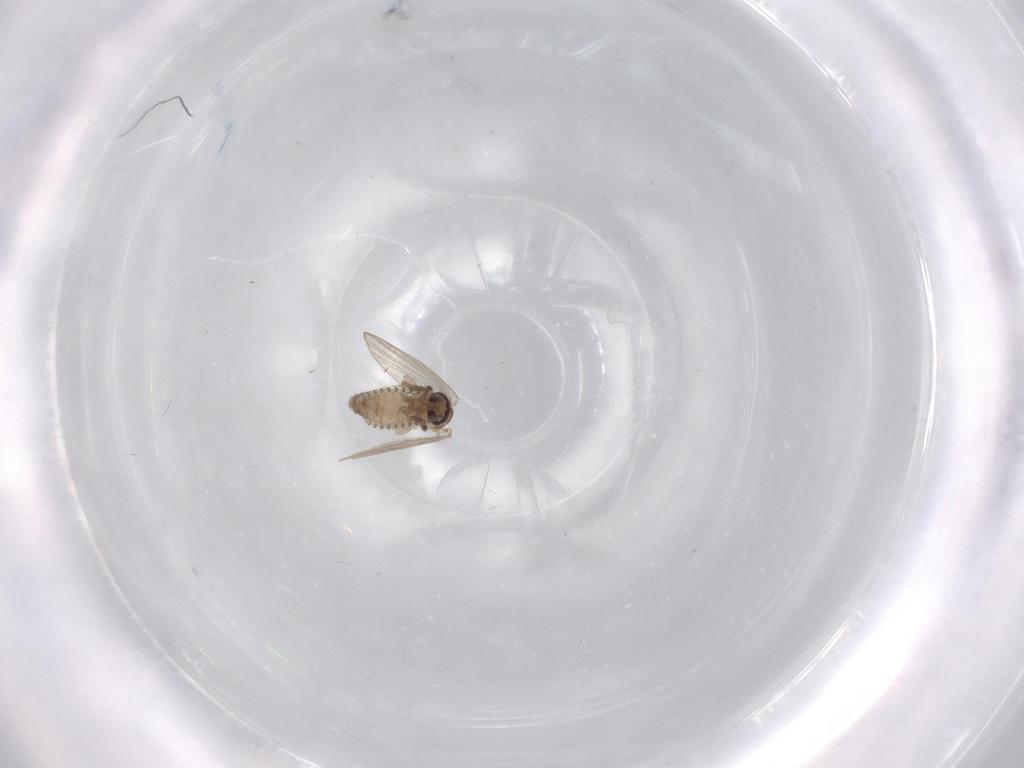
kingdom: Animalia
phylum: Arthropoda
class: Insecta
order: Diptera
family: Psychodidae
